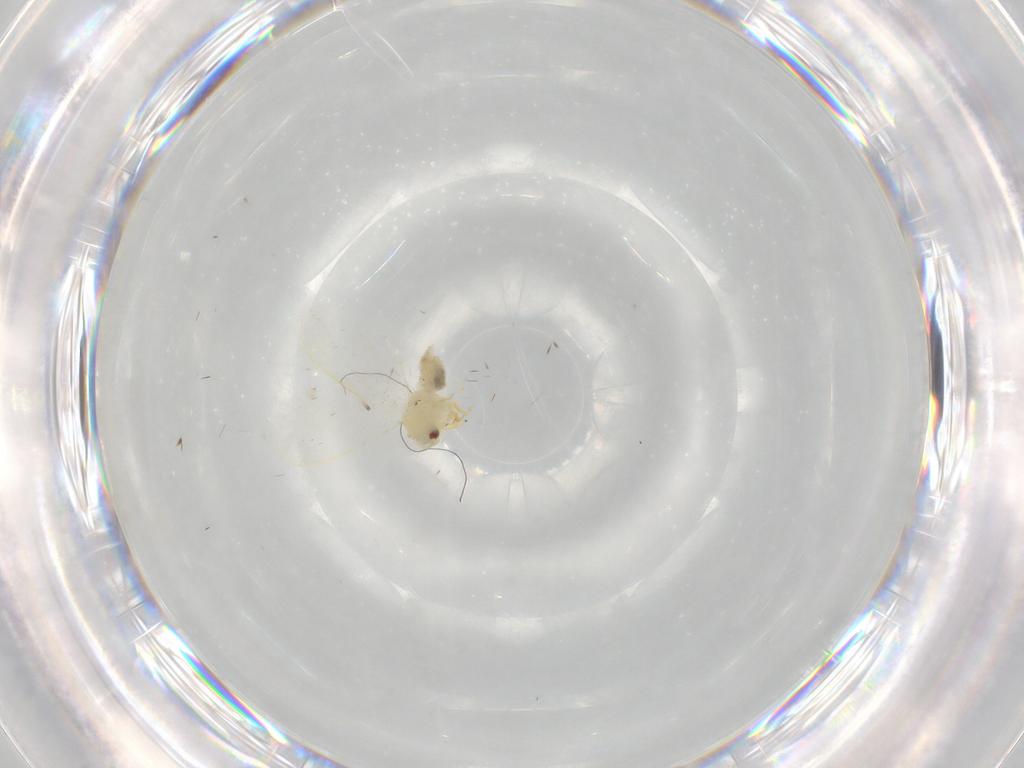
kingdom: Animalia
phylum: Arthropoda
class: Insecta
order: Hemiptera
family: Aleyrodidae
